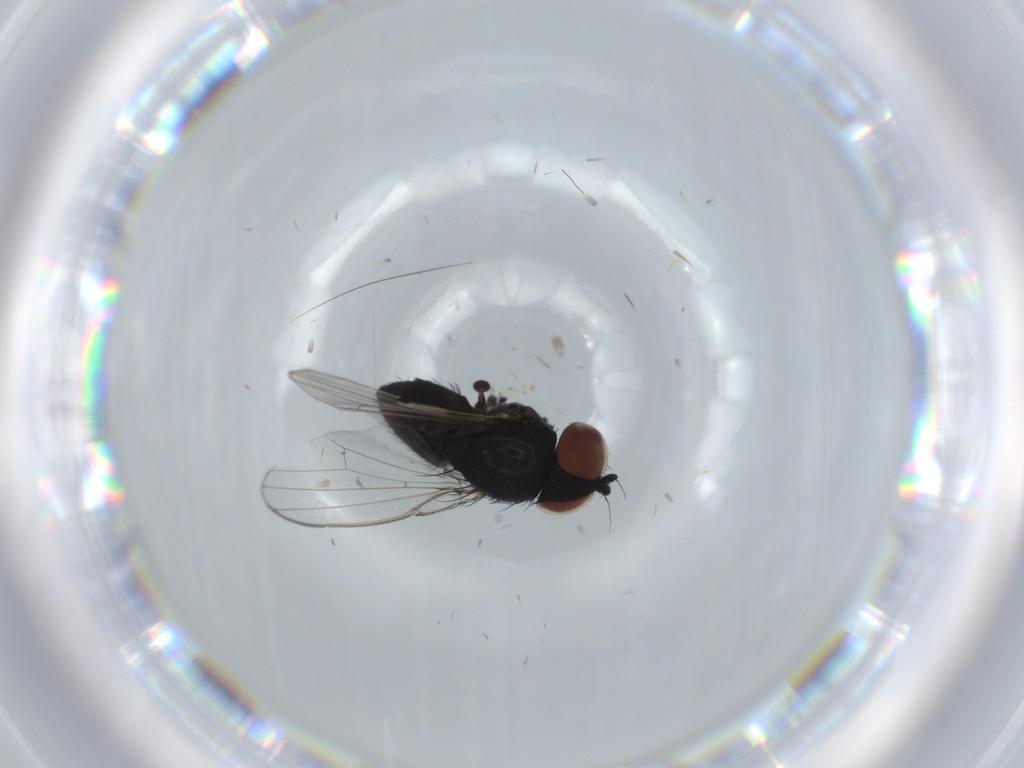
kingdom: Animalia
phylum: Arthropoda
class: Insecta
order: Diptera
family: Milichiidae
